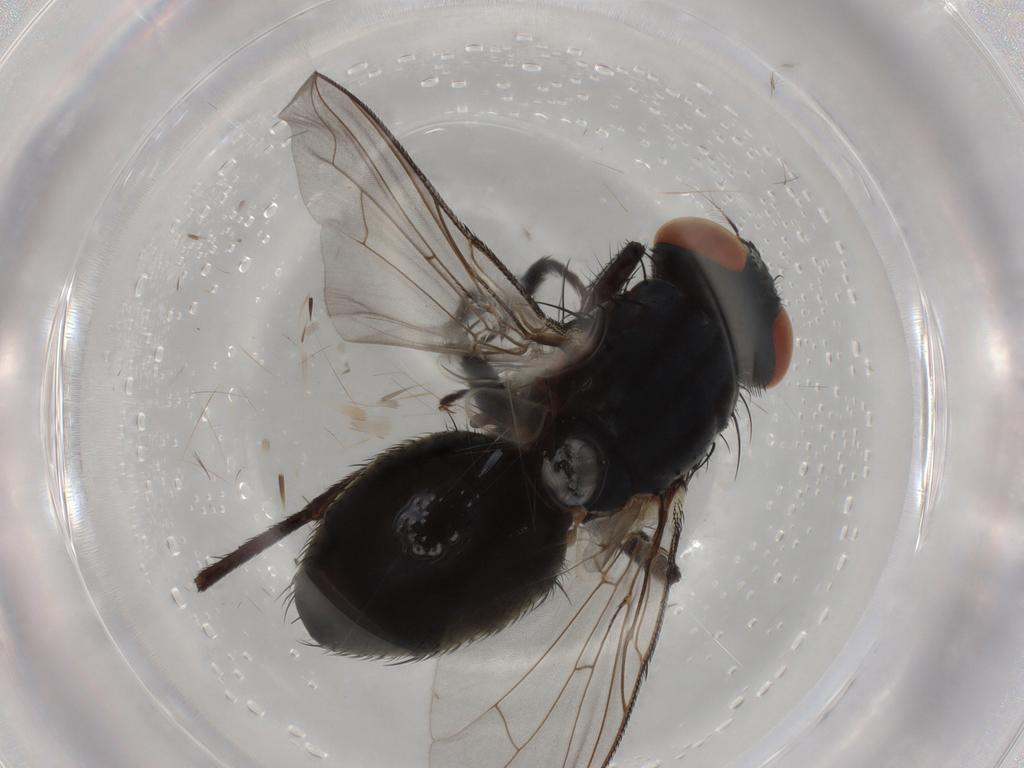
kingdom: Animalia
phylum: Arthropoda
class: Insecta
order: Diptera
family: Sarcophagidae
